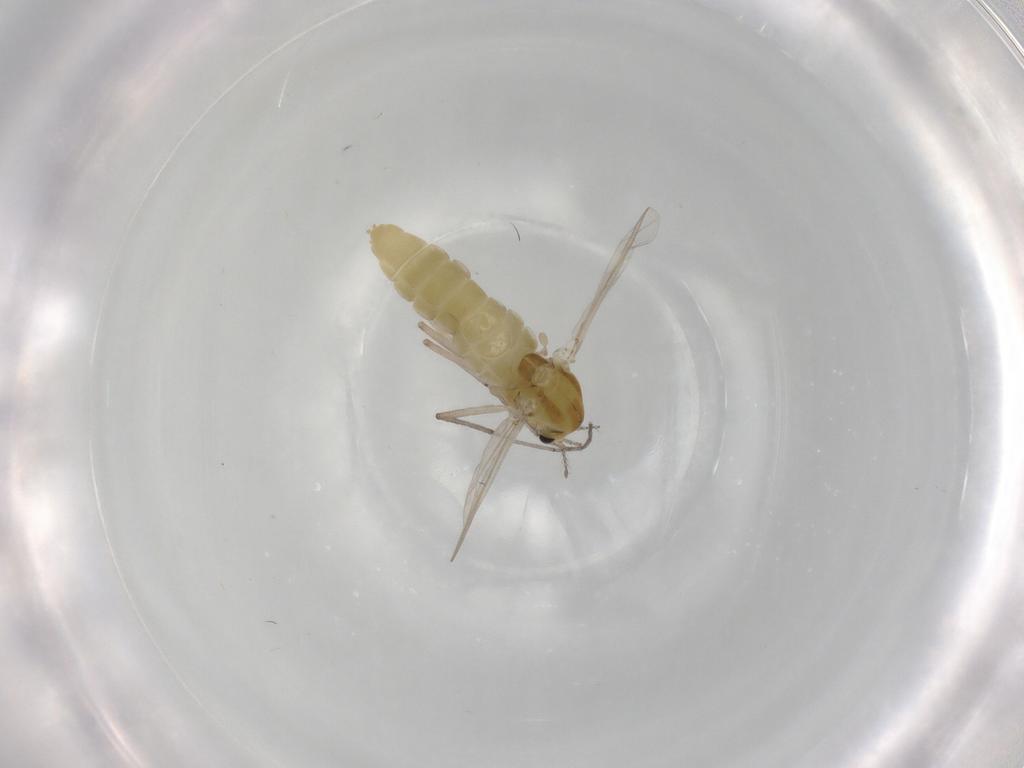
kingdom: Animalia
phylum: Arthropoda
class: Insecta
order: Diptera
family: Chironomidae
